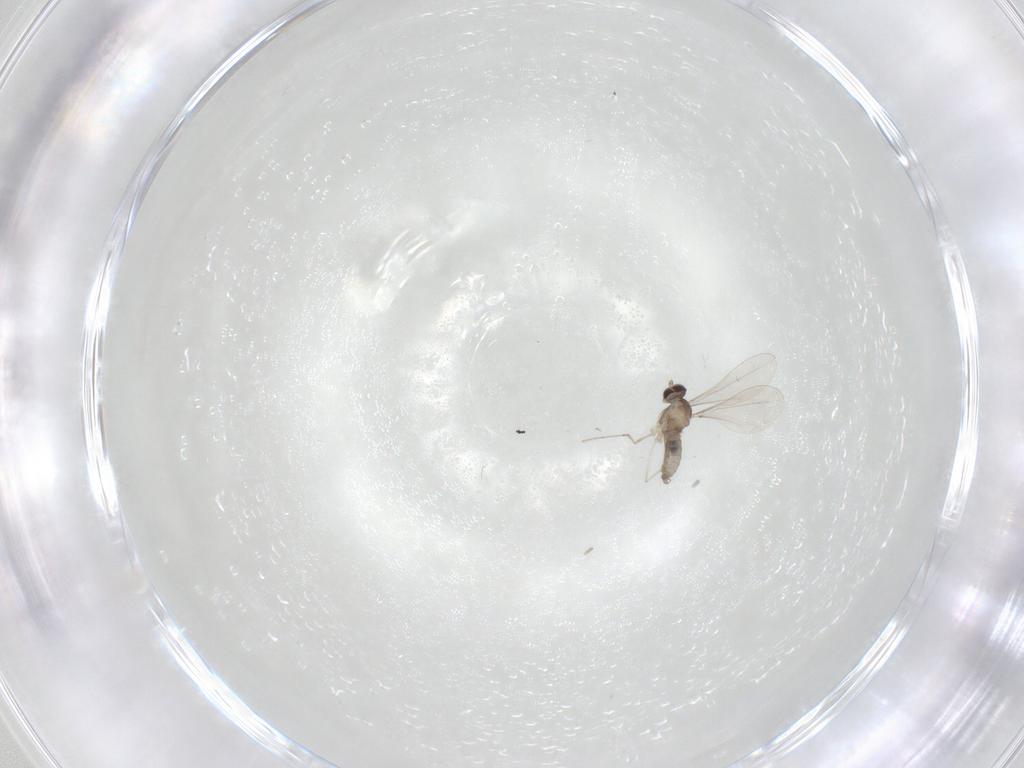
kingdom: Animalia
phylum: Arthropoda
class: Insecta
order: Diptera
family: Cecidomyiidae
